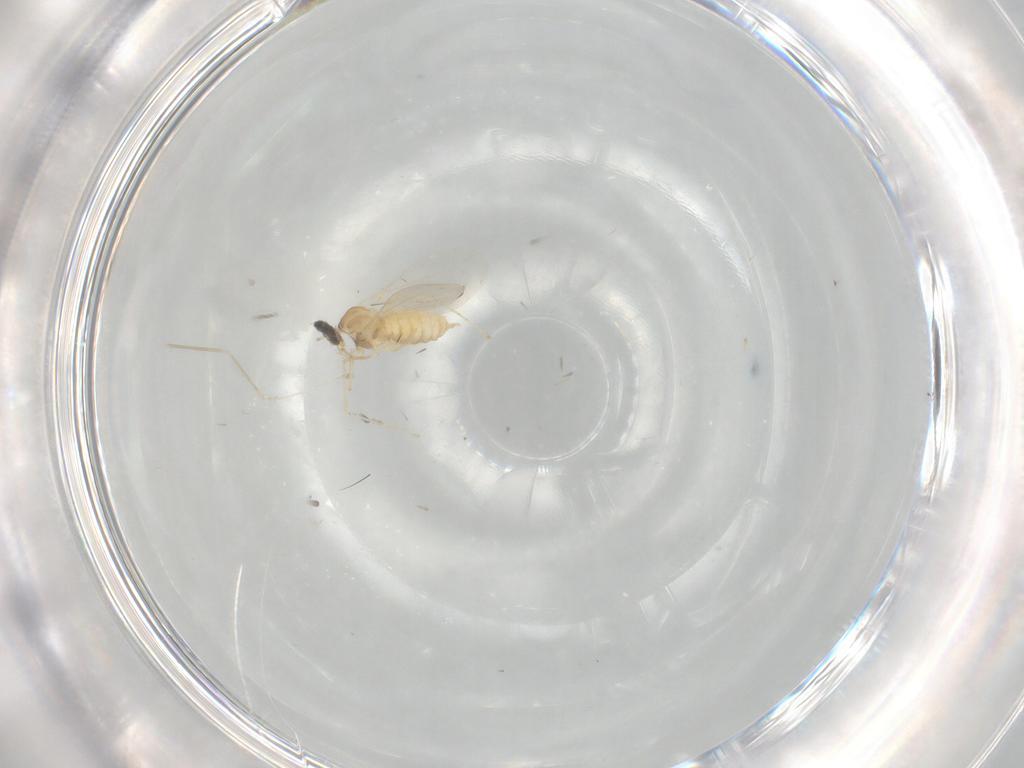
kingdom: Animalia
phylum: Arthropoda
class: Insecta
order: Diptera
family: Cecidomyiidae
